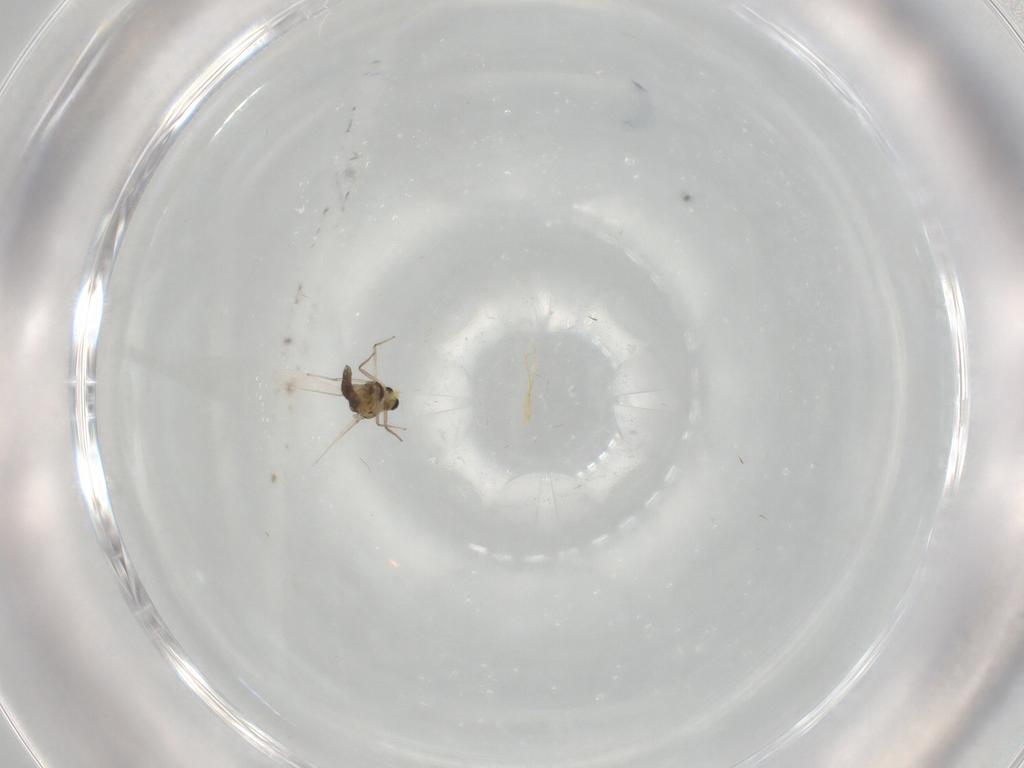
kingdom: Animalia
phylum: Arthropoda
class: Insecta
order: Diptera
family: Chironomidae
